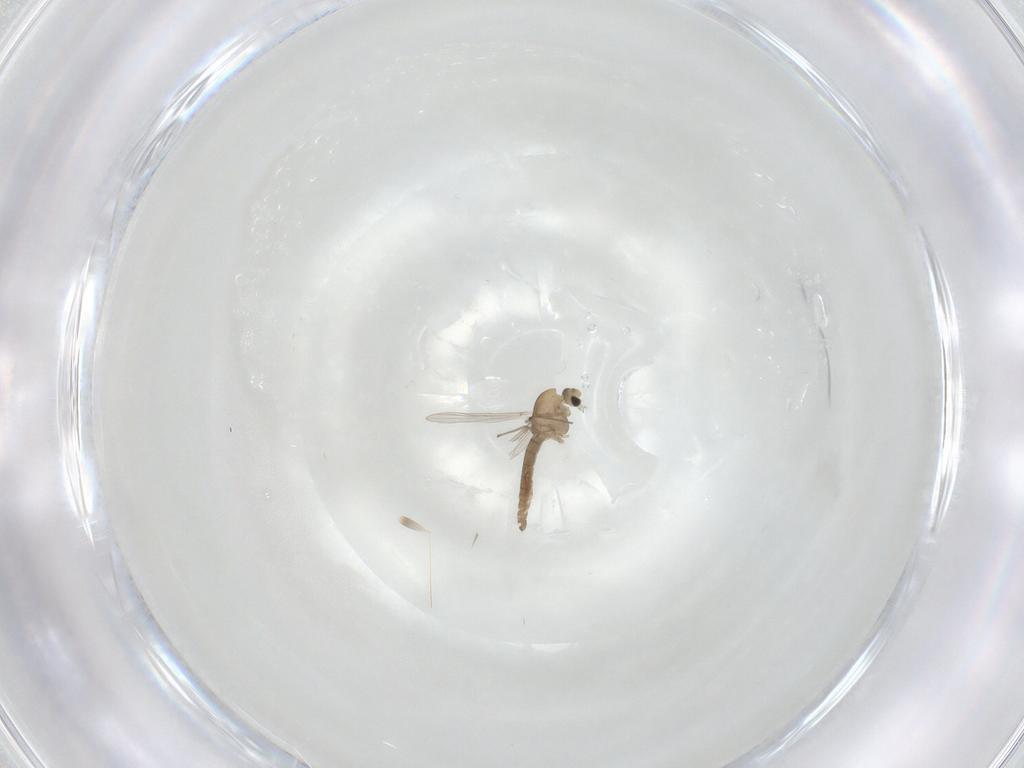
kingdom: Animalia
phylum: Arthropoda
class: Insecta
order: Diptera
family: Chironomidae
